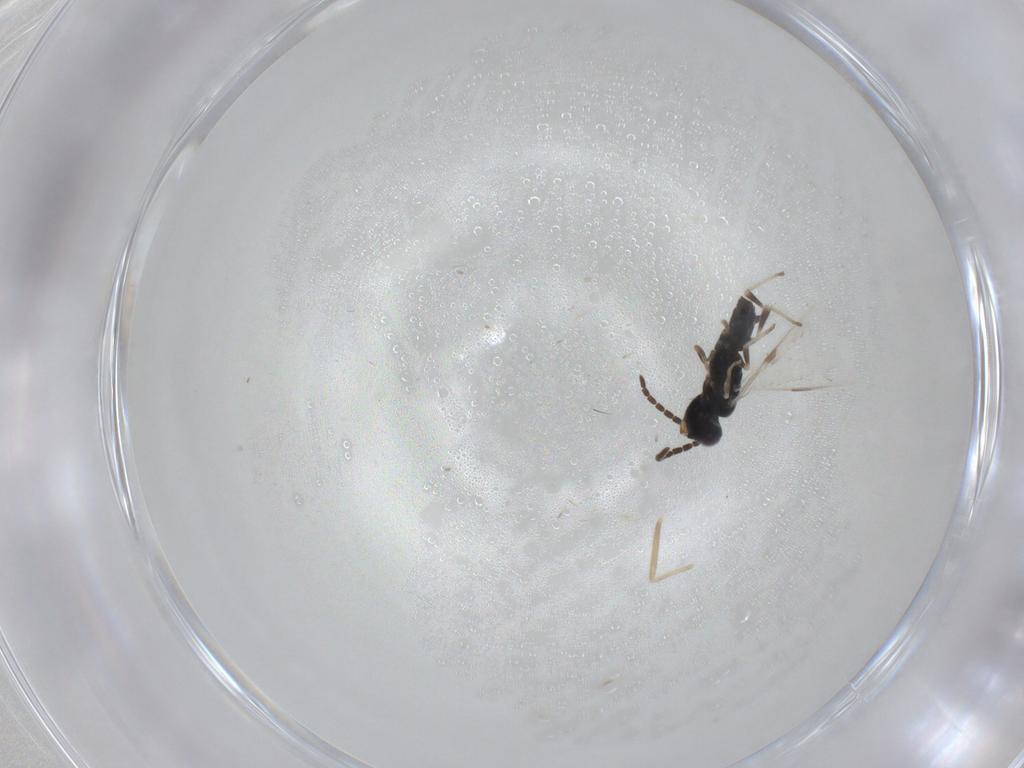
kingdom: Animalia
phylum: Arthropoda
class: Insecta
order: Hymenoptera
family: Dryinidae
